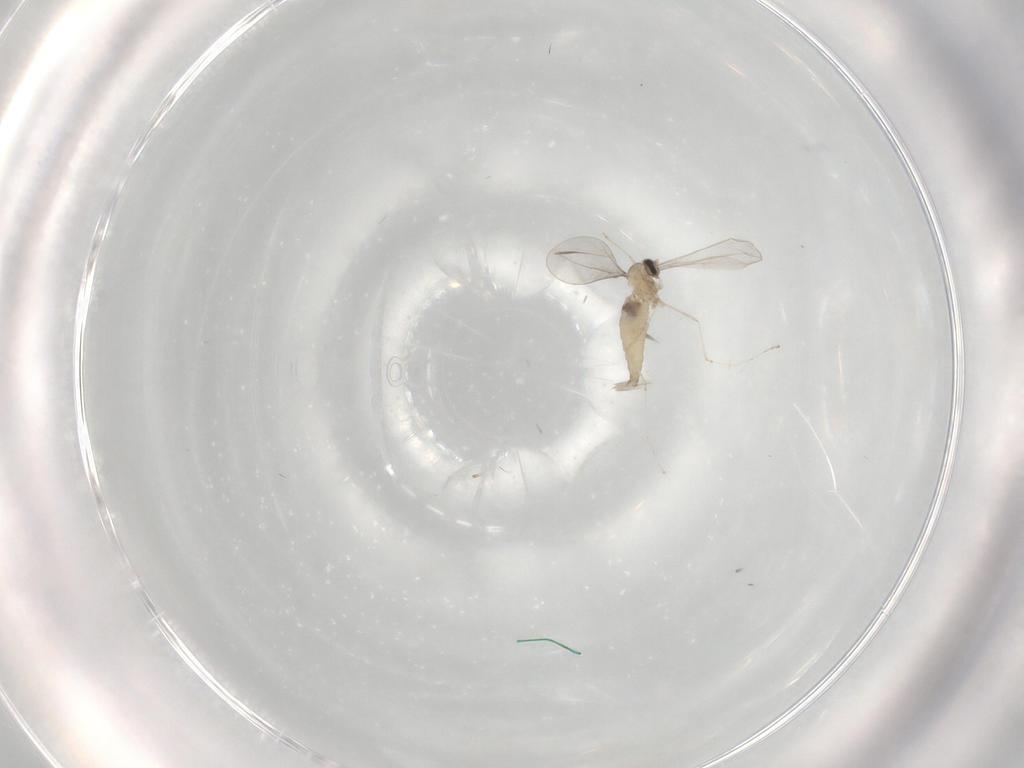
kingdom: Animalia
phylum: Arthropoda
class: Insecta
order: Diptera
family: Cecidomyiidae
